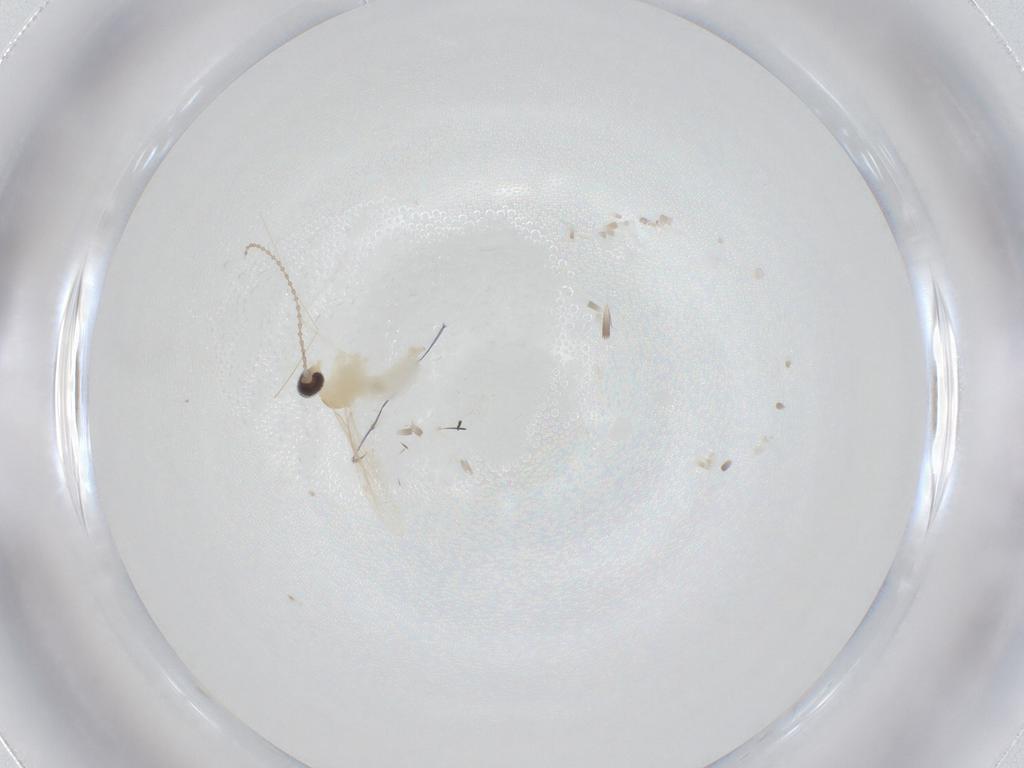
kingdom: Animalia
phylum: Arthropoda
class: Insecta
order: Diptera
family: Cecidomyiidae
